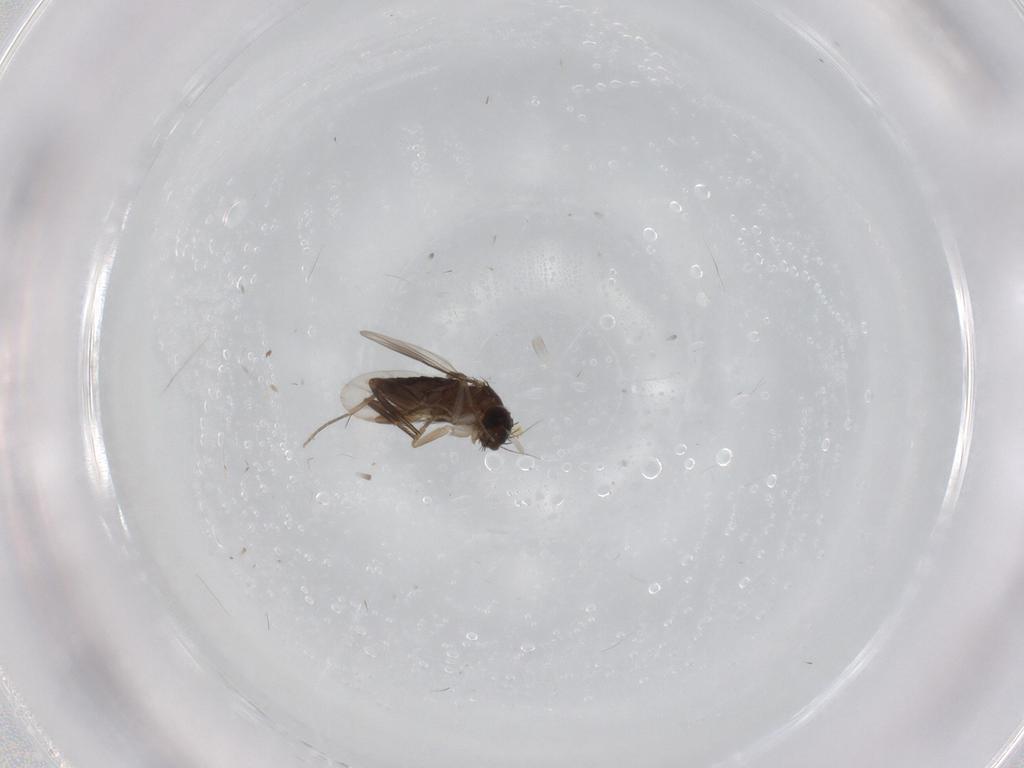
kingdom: Animalia
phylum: Arthropoda
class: Insecta
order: Diptera
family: Phoridae
